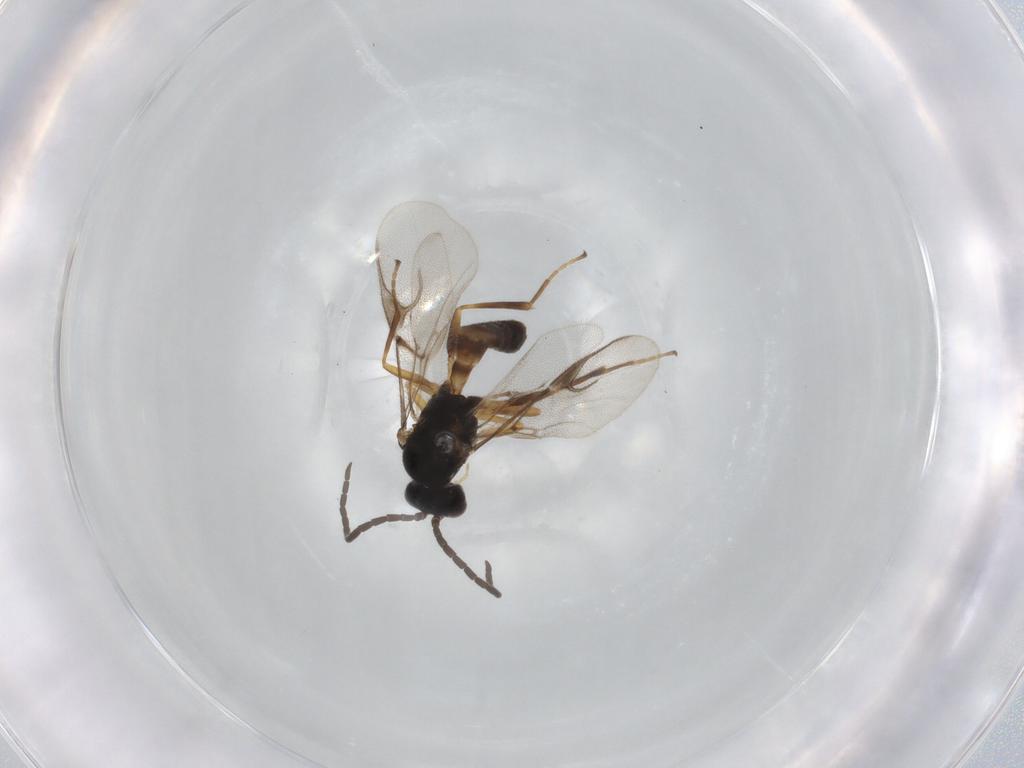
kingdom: Animalia
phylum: Arthropoda
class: Insecta
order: Hymenoptera
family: Braconidae
